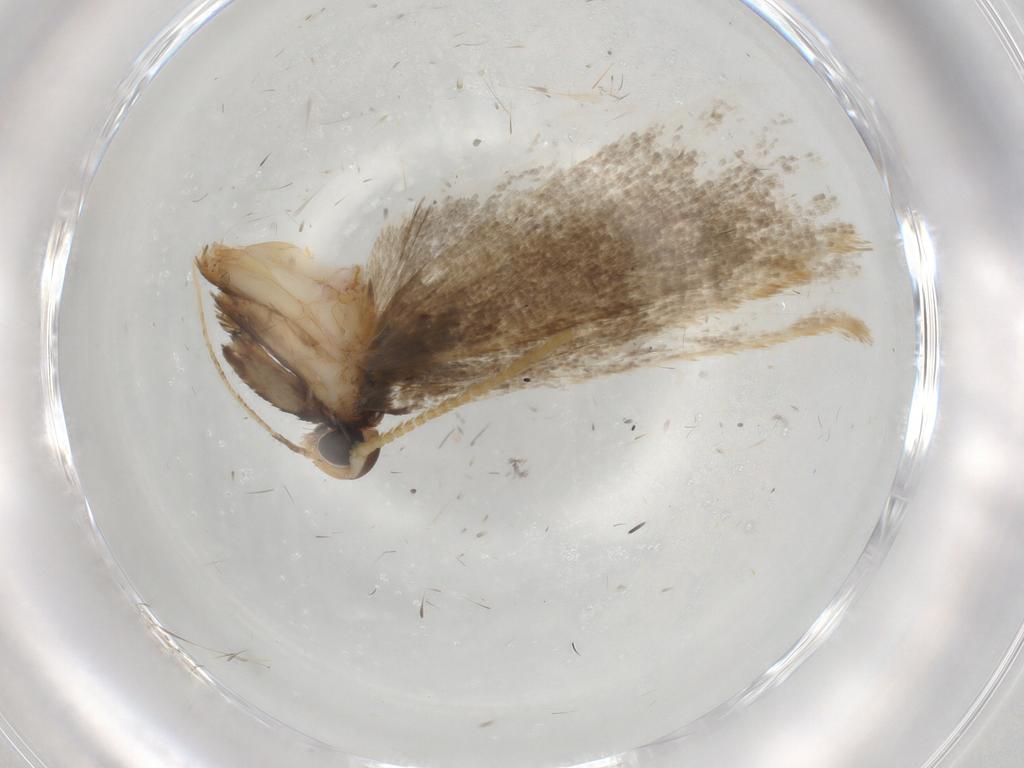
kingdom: Animalia
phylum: Arthropoda
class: Insecta
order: Lepidoptera
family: Lecithoceridae
